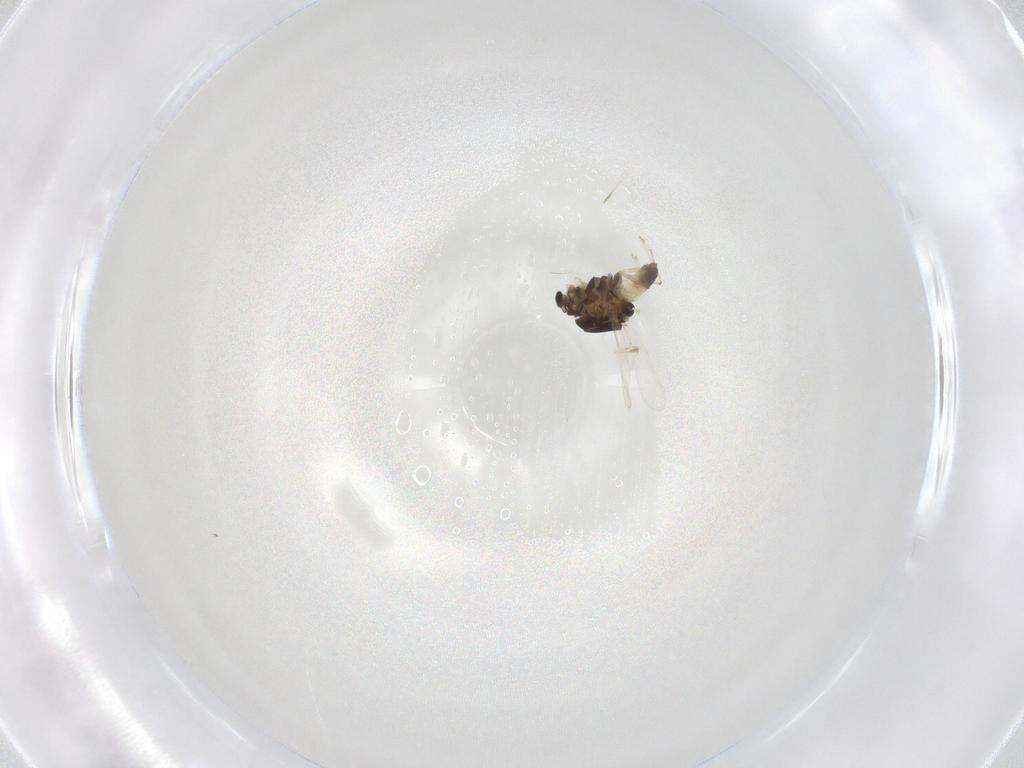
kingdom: Animalia
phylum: Arthropoda
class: Insecta
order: Diptera
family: Chironomidae
